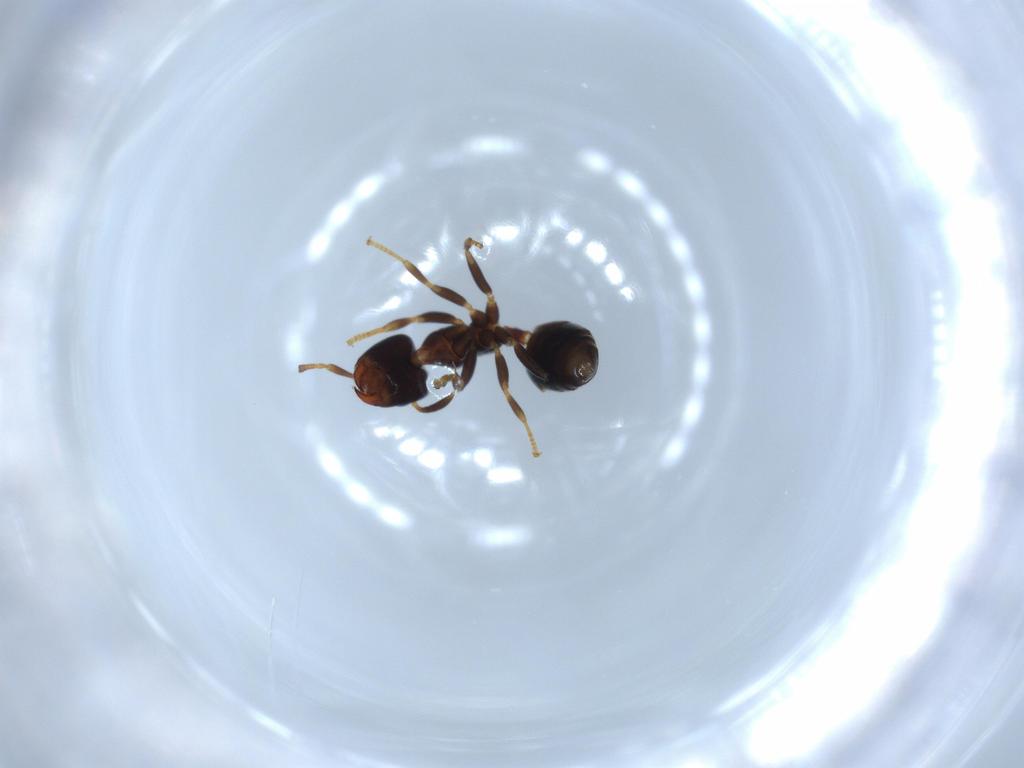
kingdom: Animalia
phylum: Arthropoda
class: Insecta
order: Hymenoptera
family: Formicidae
